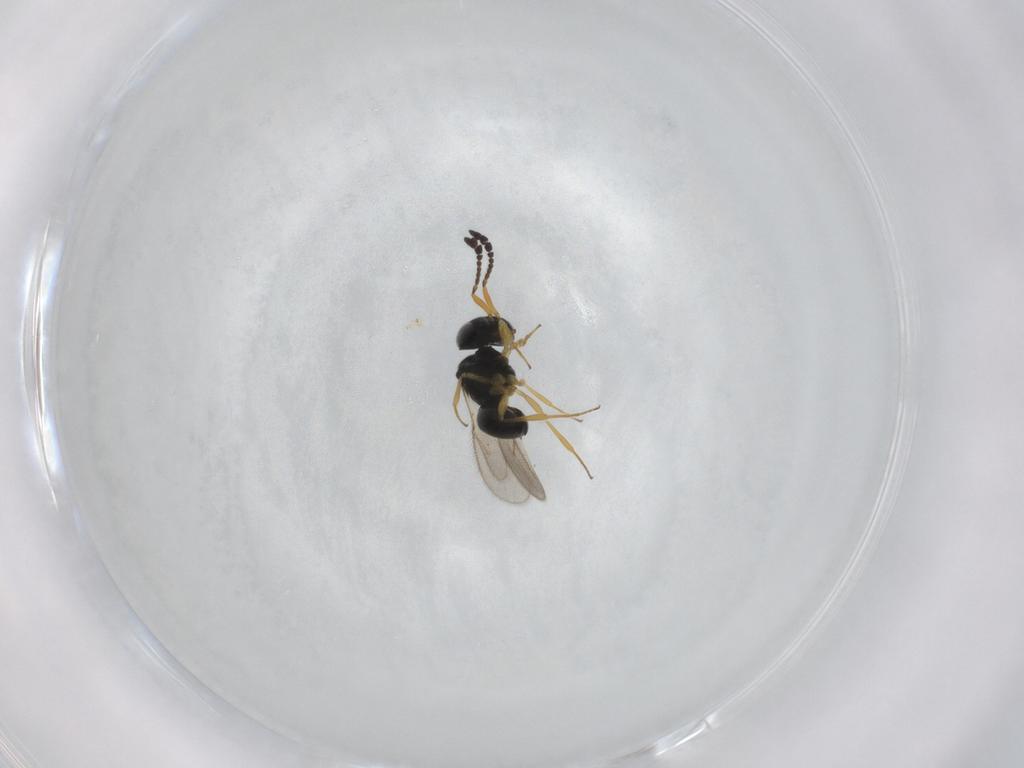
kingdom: Animalia
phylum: Arthropoda
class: Insecta
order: Hymenoptera
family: Scelionidae
